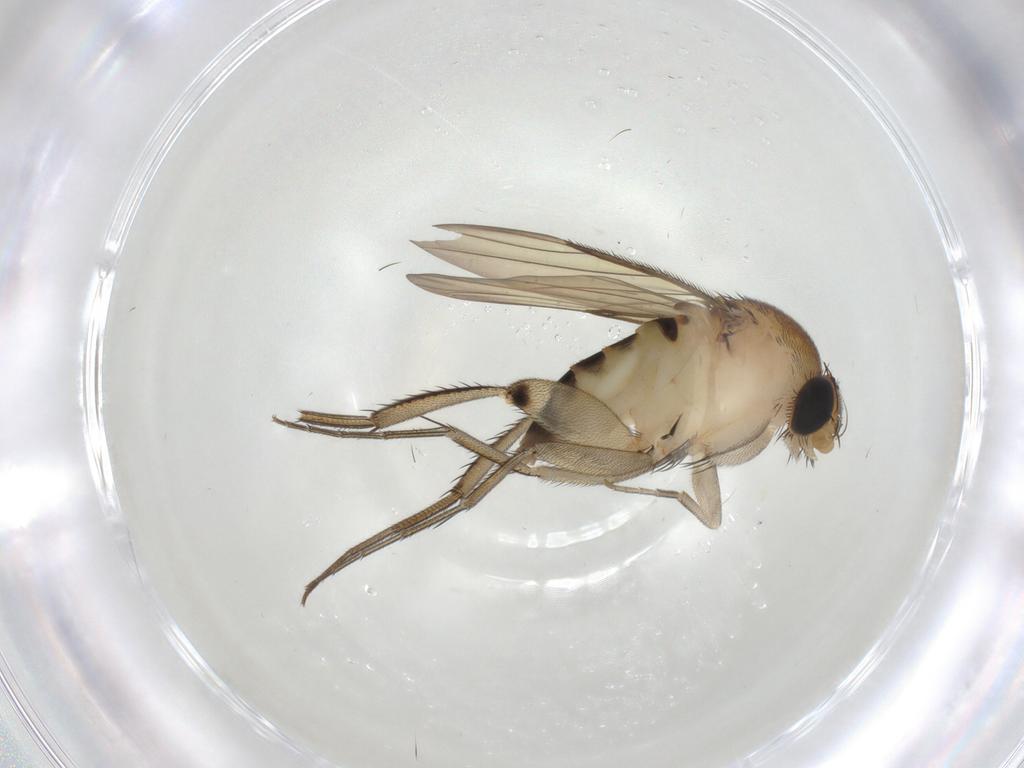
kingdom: Animalia
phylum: Arthropoda
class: Insecta
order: Diptera
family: Phoridae
